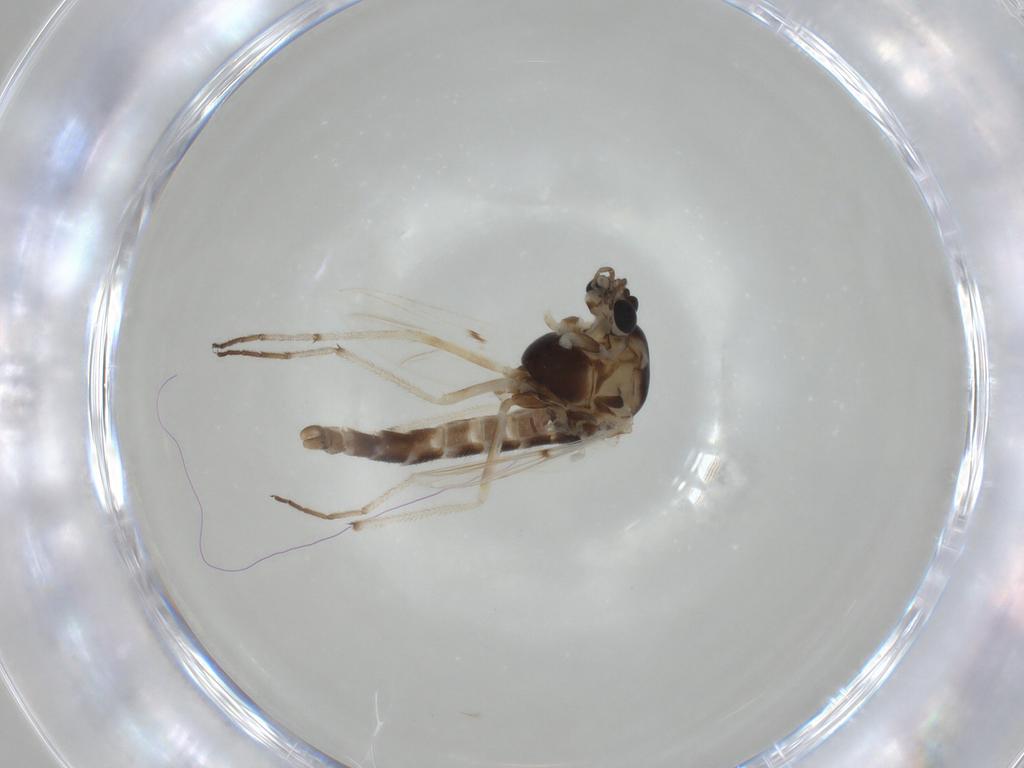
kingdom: Animalia
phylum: Arthropoda
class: Insecta
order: Diptera
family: Chironomidae
